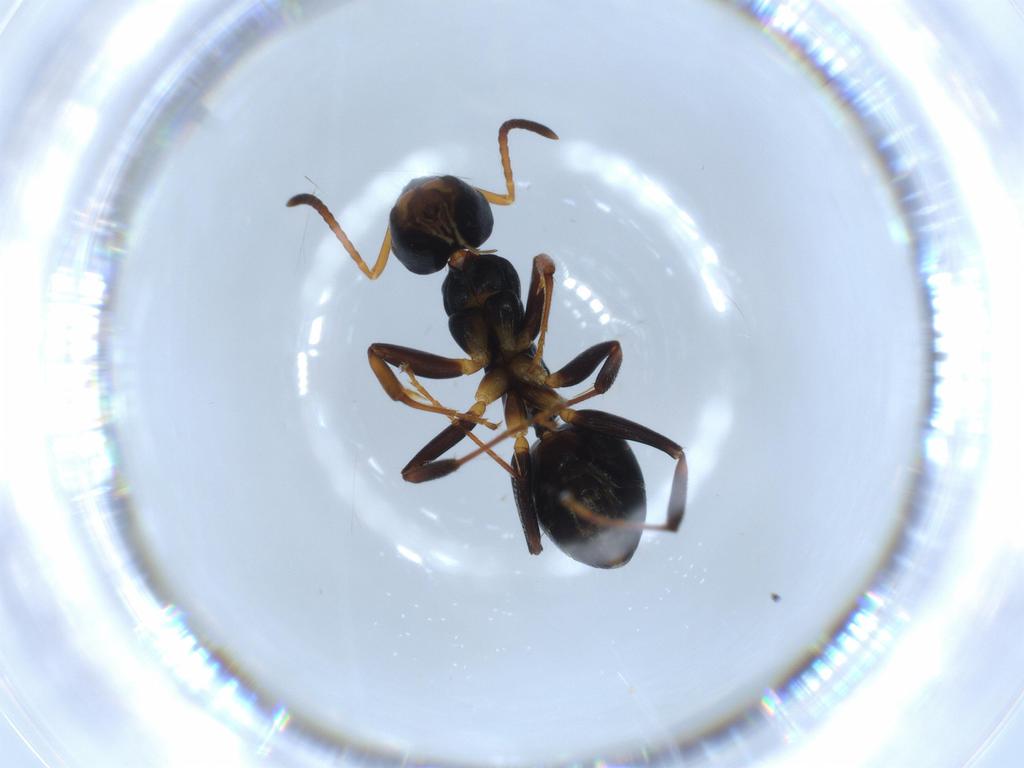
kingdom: Animalia
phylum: Arthropoda
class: Insecta
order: Hymenoptera
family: Formicidae
